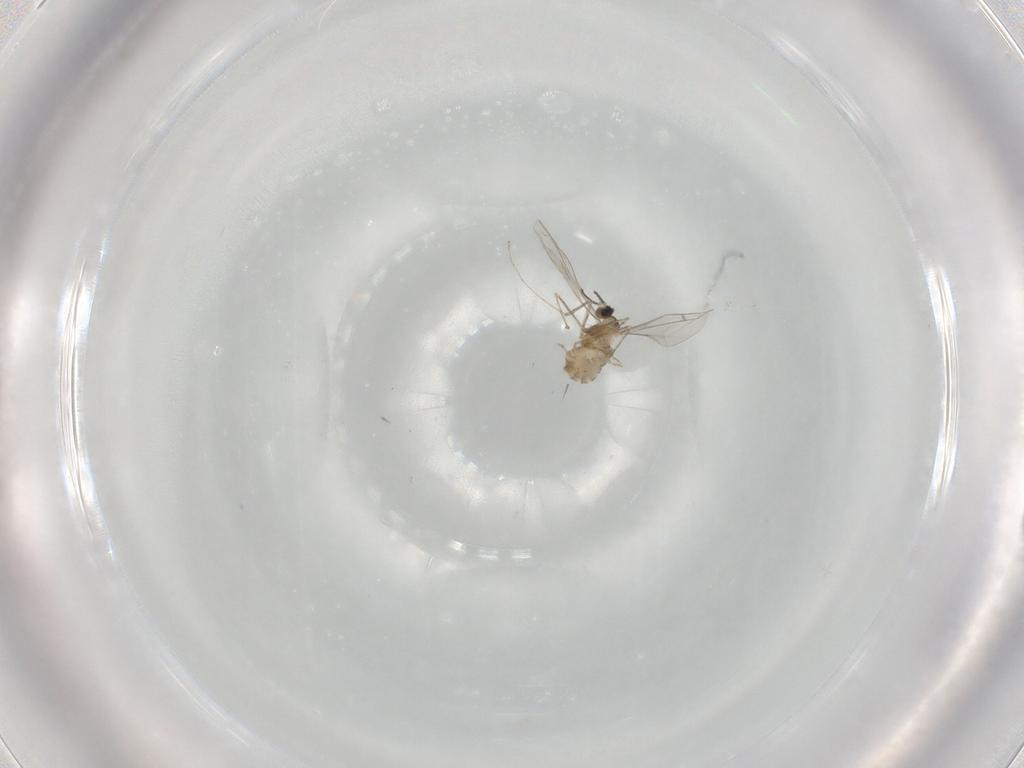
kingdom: Animalia
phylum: Arthropoda
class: Insecta
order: Diptera
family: Cecidomyiidae
